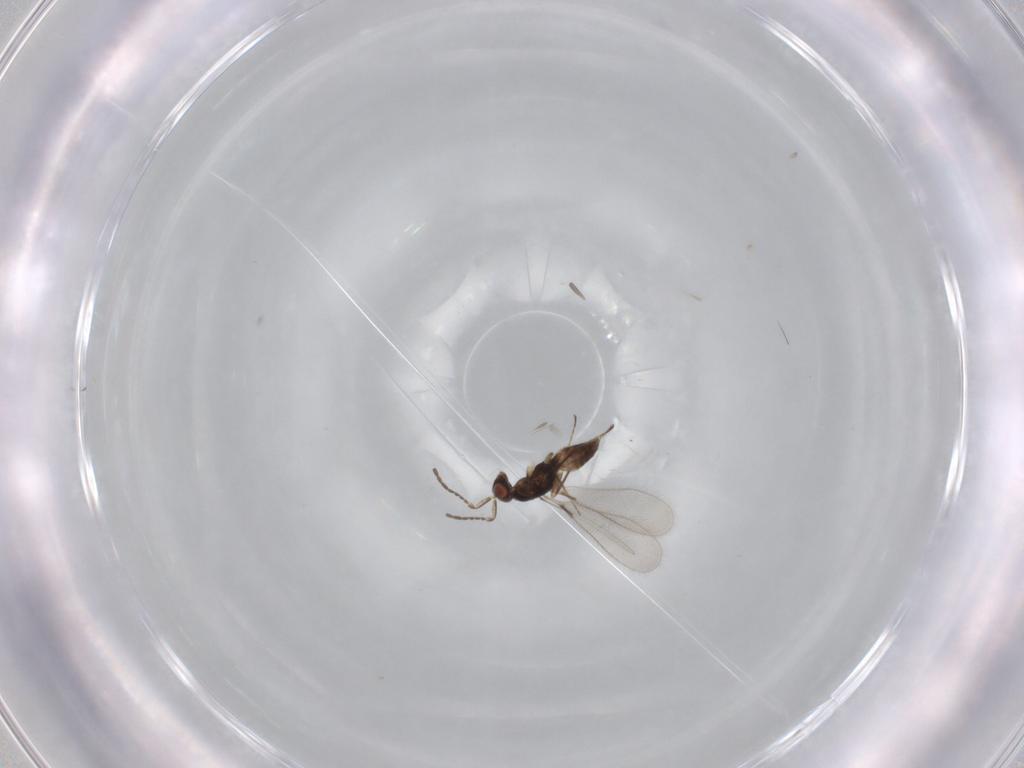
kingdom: Animalia
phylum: Arthropoda
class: Insecta
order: Hymenoptera
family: Mymaridae
